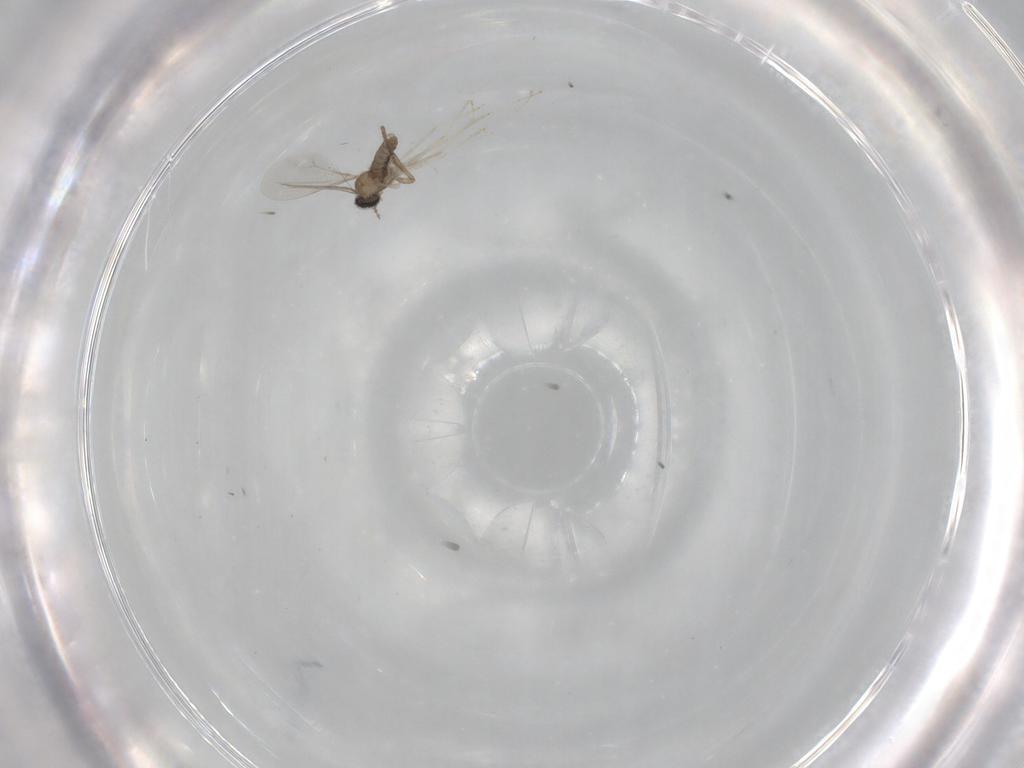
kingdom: Animalia
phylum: Arthropoda
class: Insecta
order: Diptera
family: Cecidomyiidae
